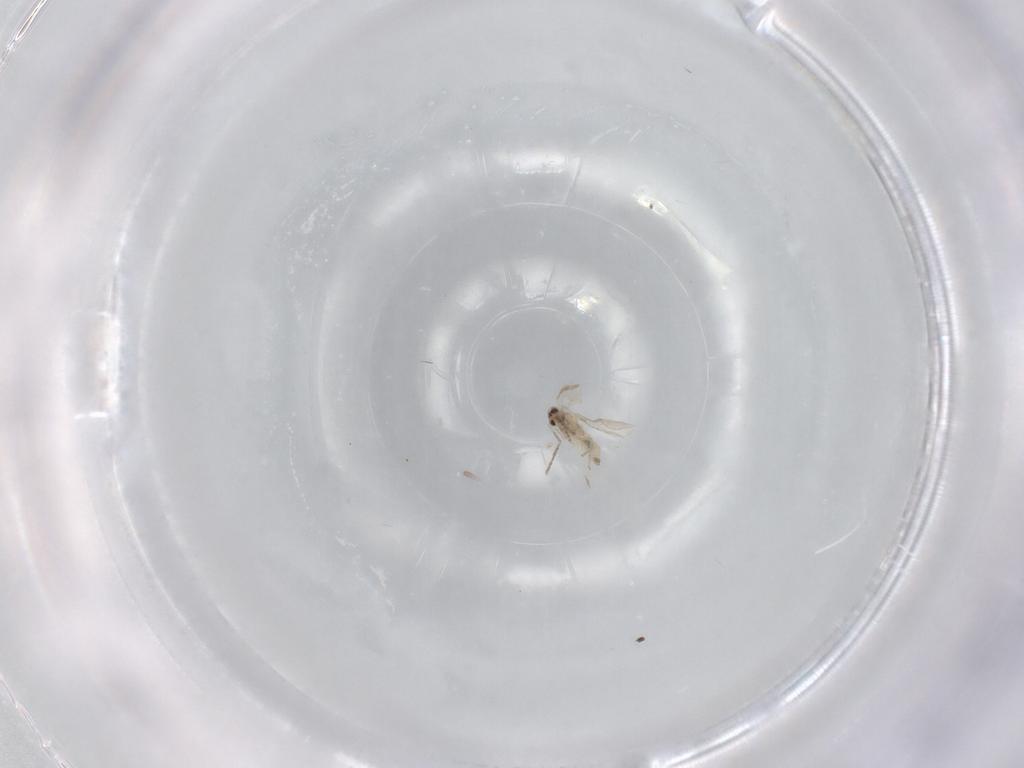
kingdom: Animalia
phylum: Arthropoda
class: Insecta
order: Diptera
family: Cecidomyiidae
